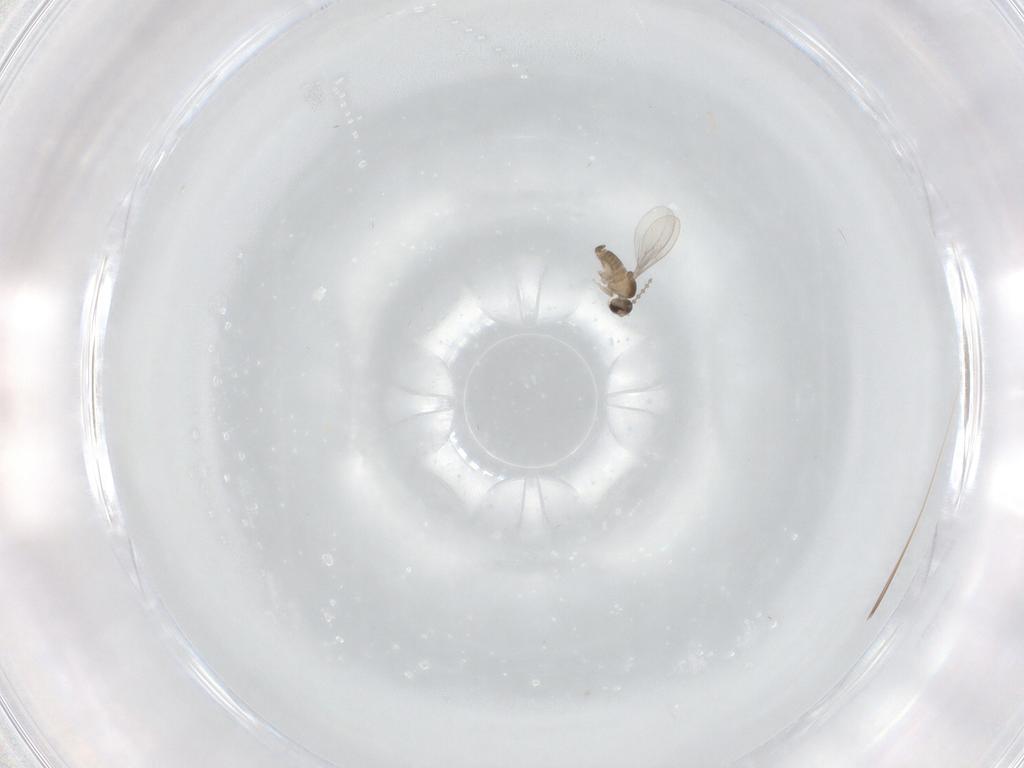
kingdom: Animalia
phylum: Arthropoda
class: Insecta
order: Diptera
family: Cecidomyiidae
